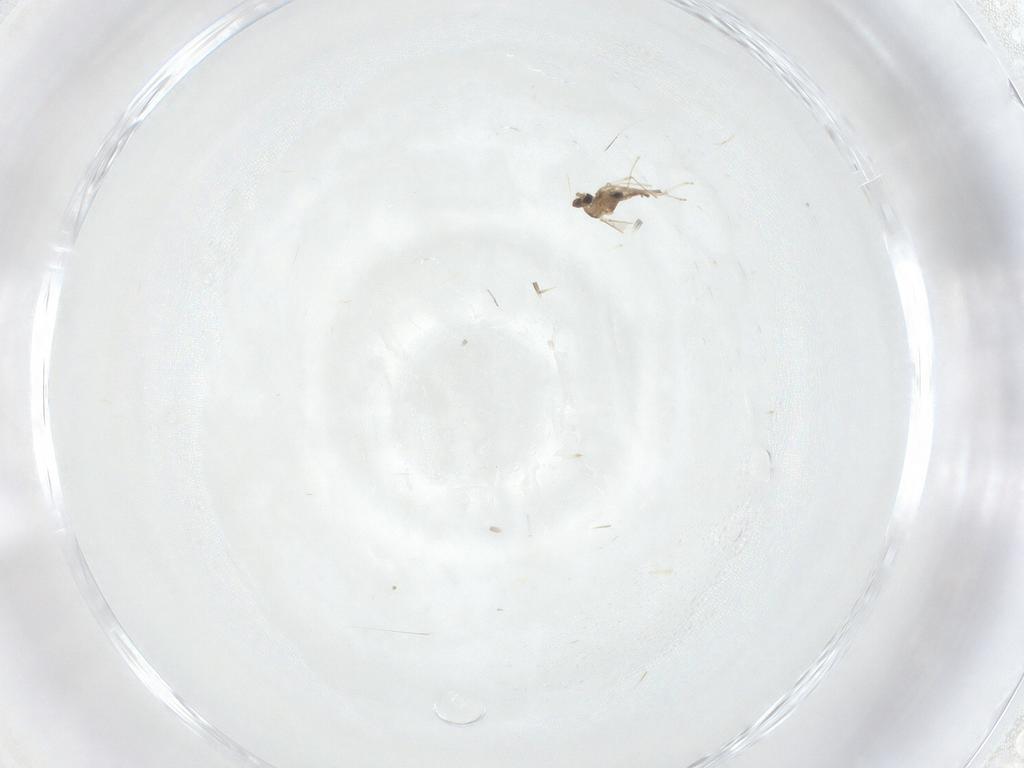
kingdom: Animalia
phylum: Arthropoda
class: Insecta
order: Diptera
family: Cecidomyiidae
